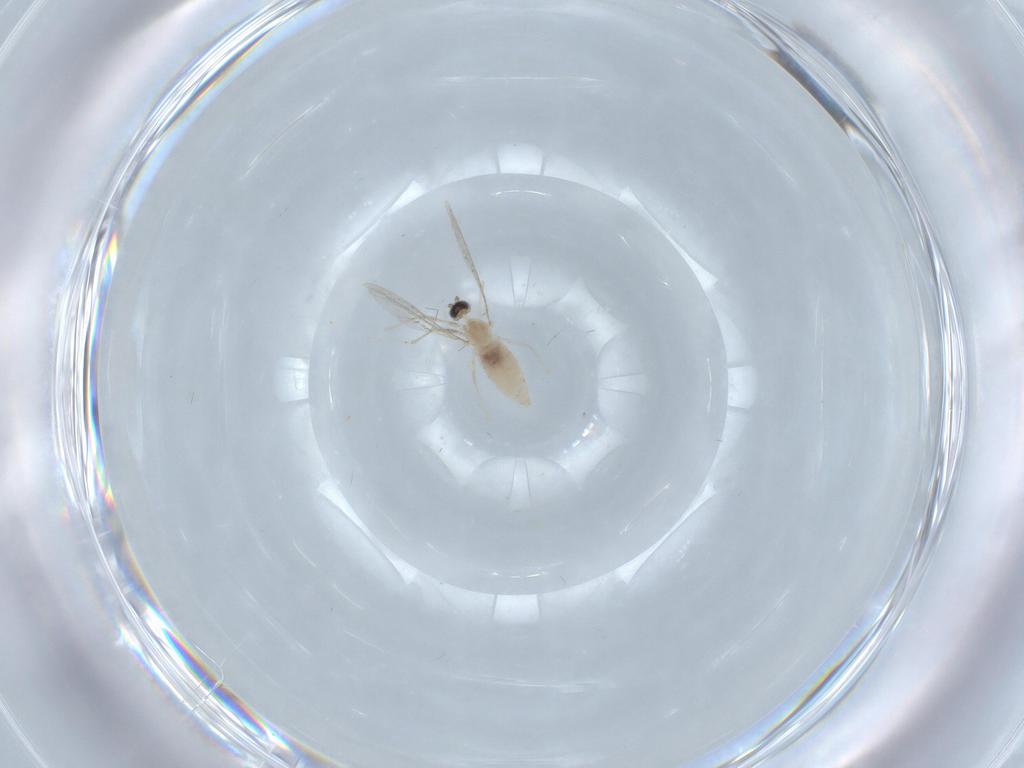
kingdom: Animalia
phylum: Arthropoda
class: Insecta
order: Diptera
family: Cecidomyiidae
